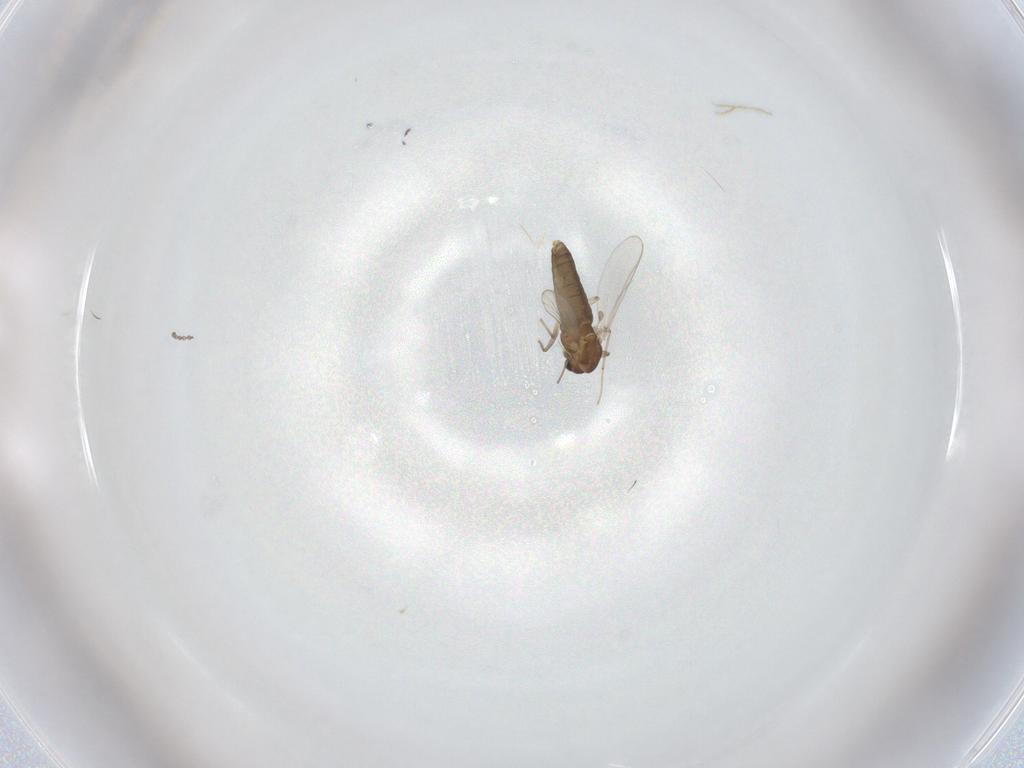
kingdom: Animalia
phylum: Arthropoda
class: Insecta
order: Diptera
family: Cecidomyiidae
